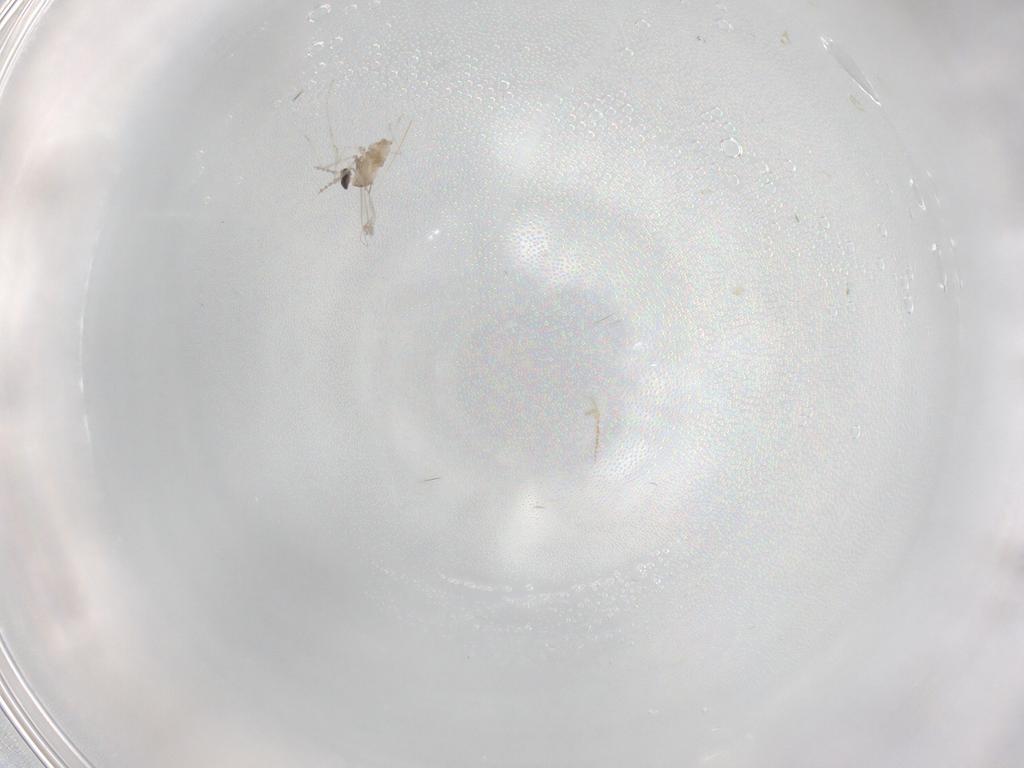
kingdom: Animalia
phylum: Arthropoda
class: Insecta
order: Diptera
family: Cecidomyiidae
